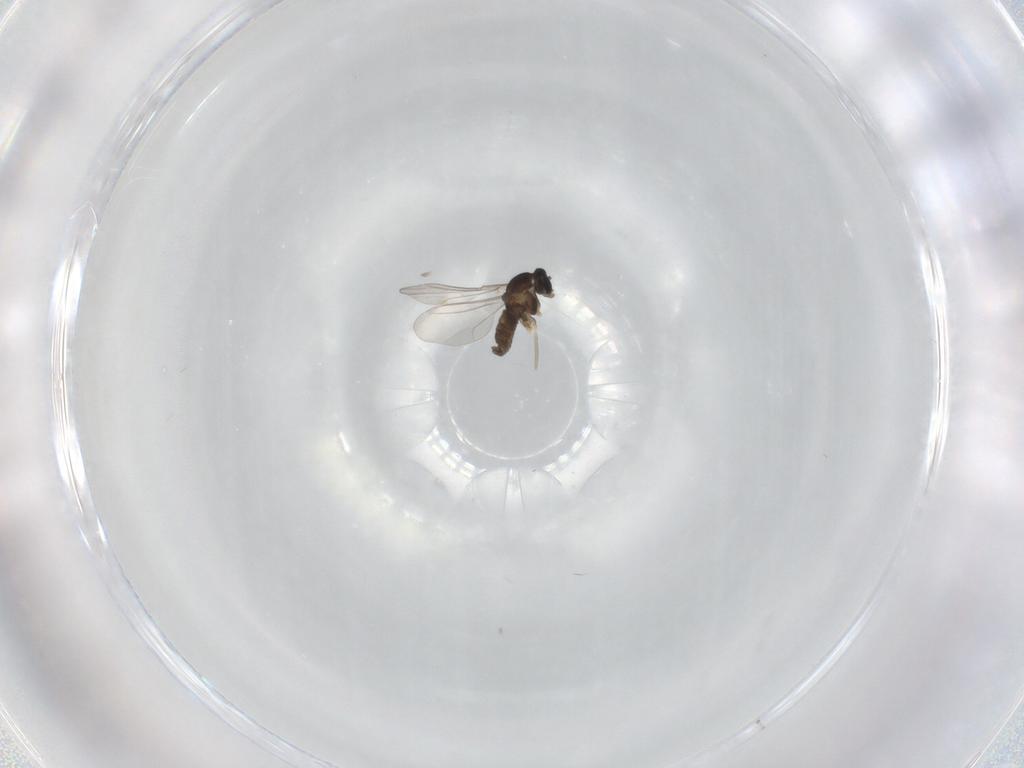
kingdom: Animalia
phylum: Arthropoda
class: Insecta
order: Diptera
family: Cecidomyiidae
